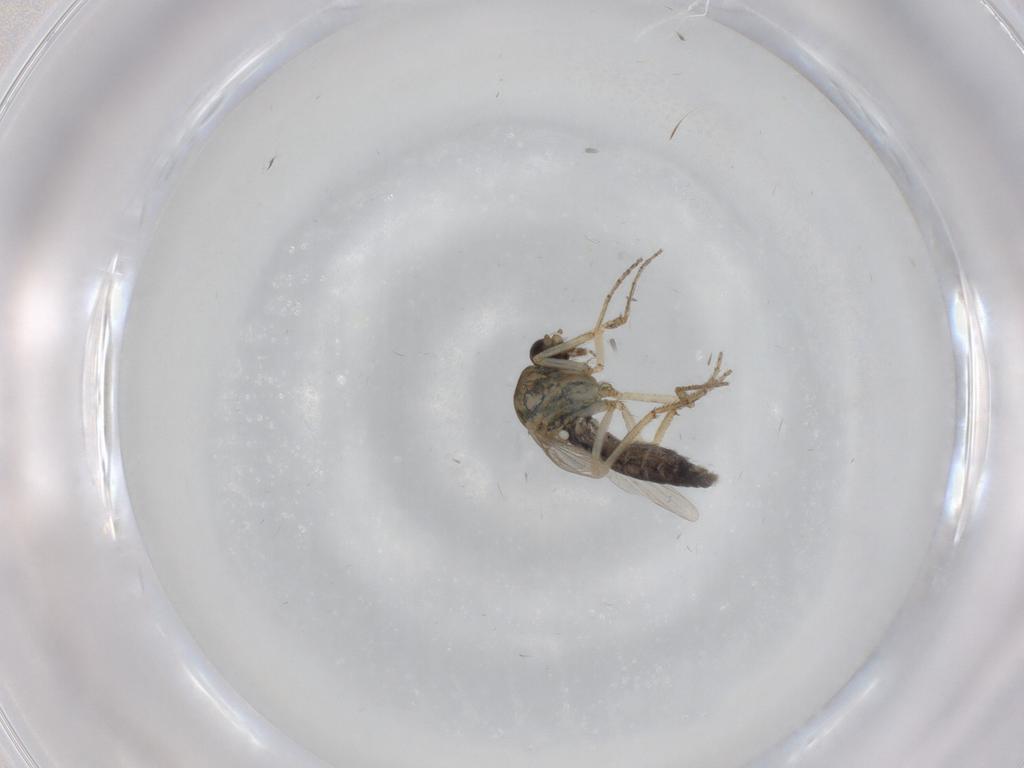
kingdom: Animalia
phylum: Arthropoda
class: Insecta
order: Diptera
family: Ceratopogonidae
